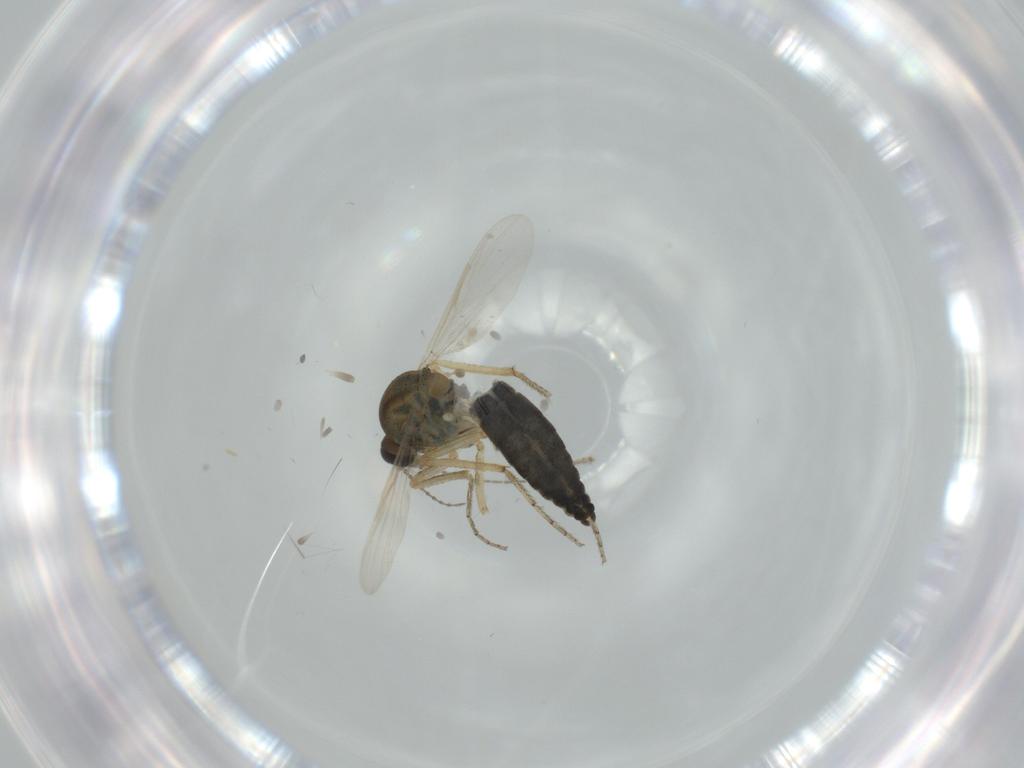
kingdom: Animalia
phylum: Arthropoda
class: Insecta
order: Diptera
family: Ceratopogonidae
